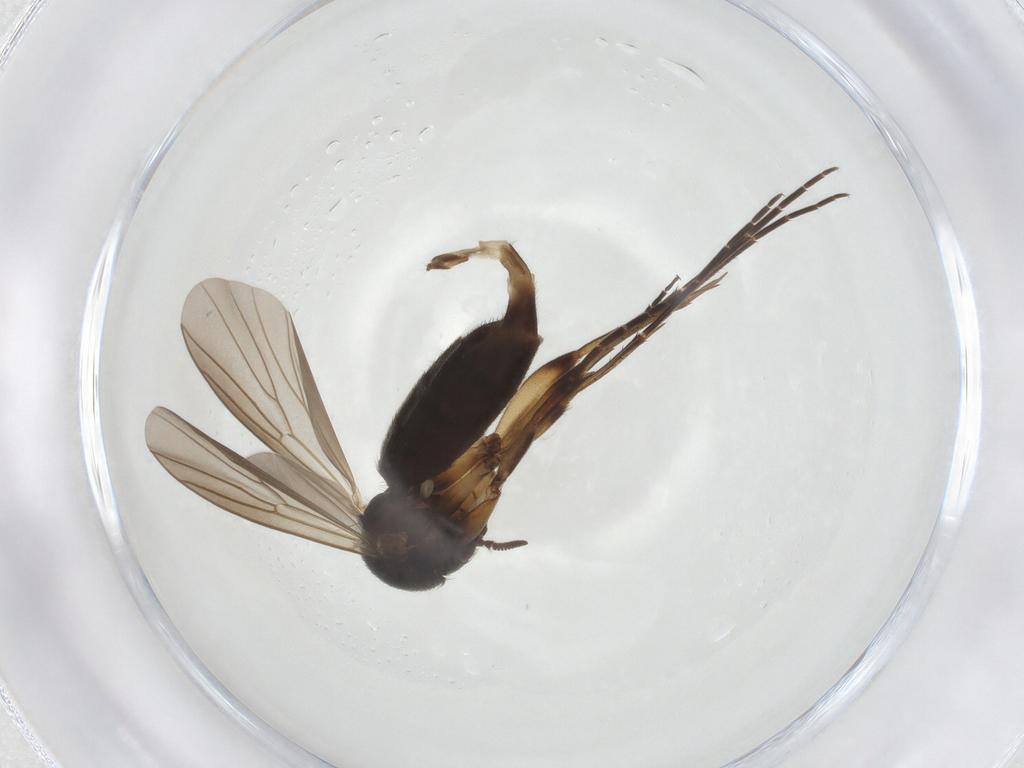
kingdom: Animalia
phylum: Arthropoda
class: Insecta
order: Diptera
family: Mycetophilidae
